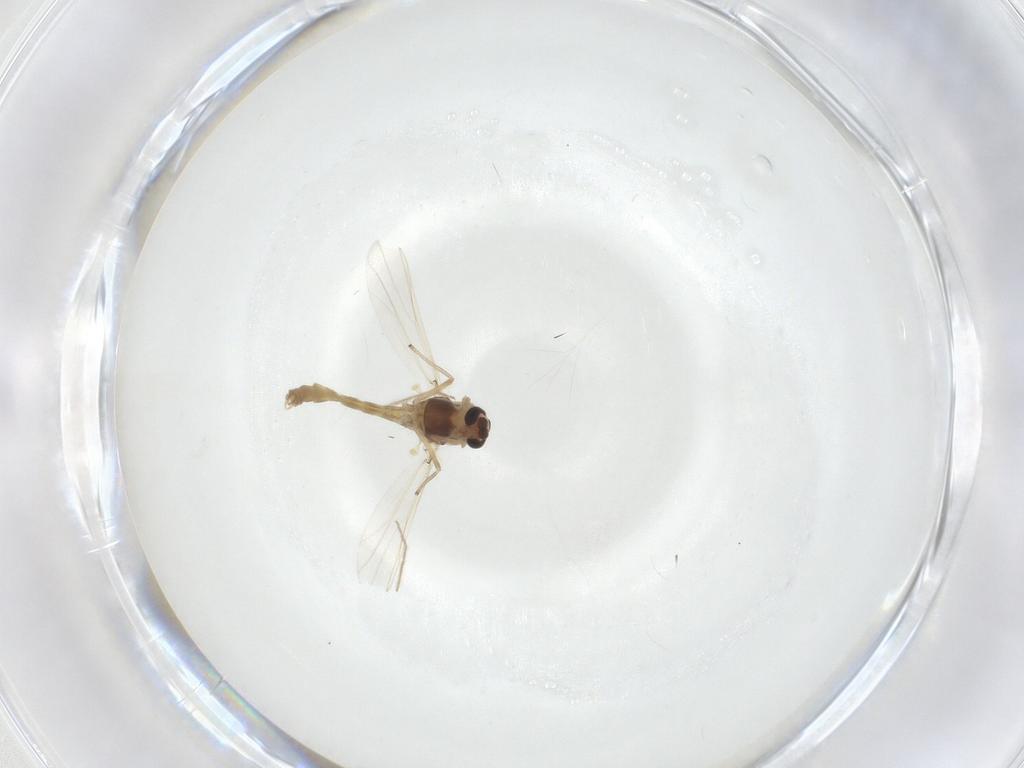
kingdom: Animalia
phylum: Arthropoda
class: Insecta
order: Diptera
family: Chironomidae
